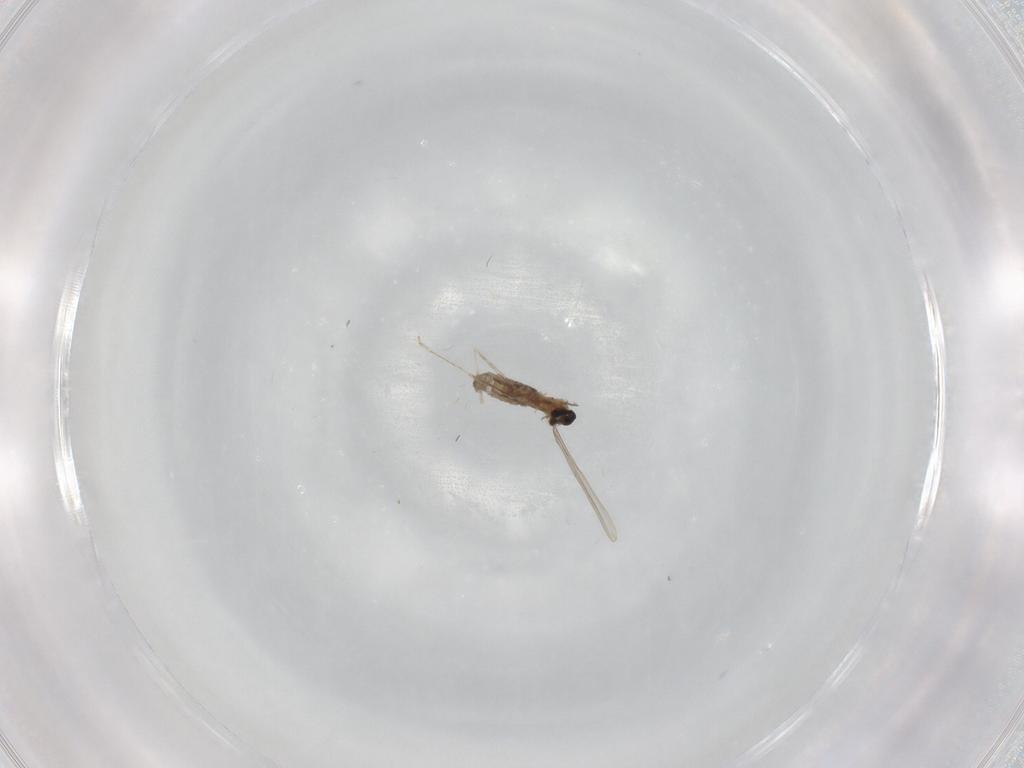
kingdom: Animalia
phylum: Arthropoda
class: Insecta
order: Diptera
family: Cecidomyiidae
